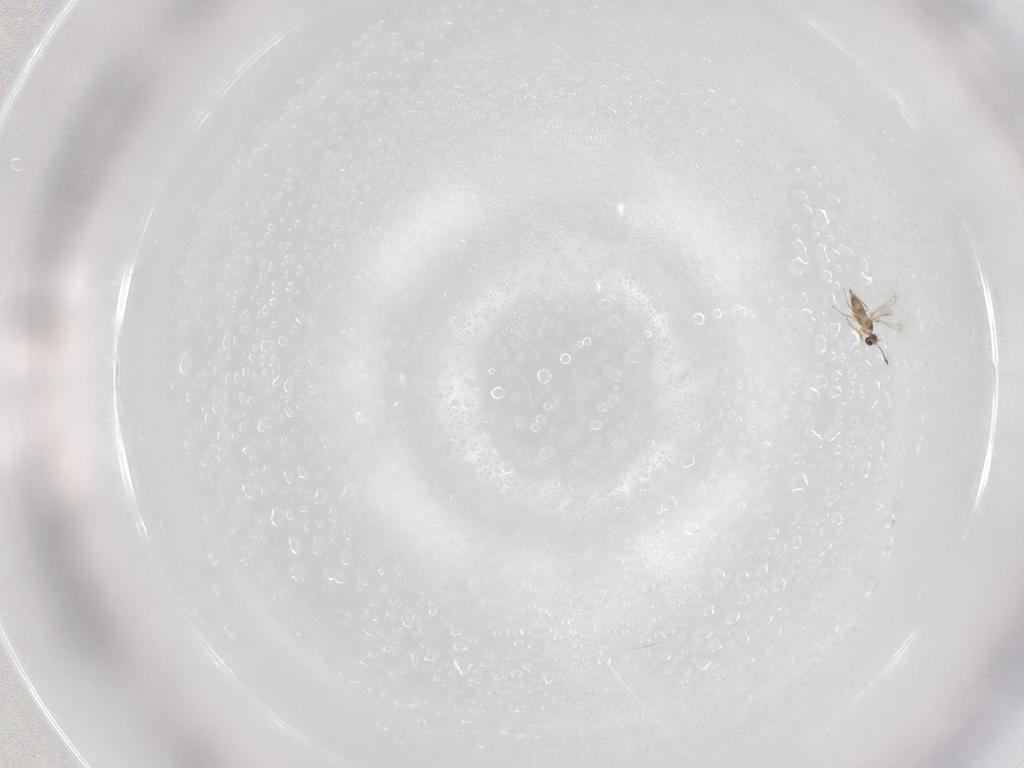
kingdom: Animalia
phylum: Arthropoda
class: Insecta
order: Hymenoptera
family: Mymaridae
